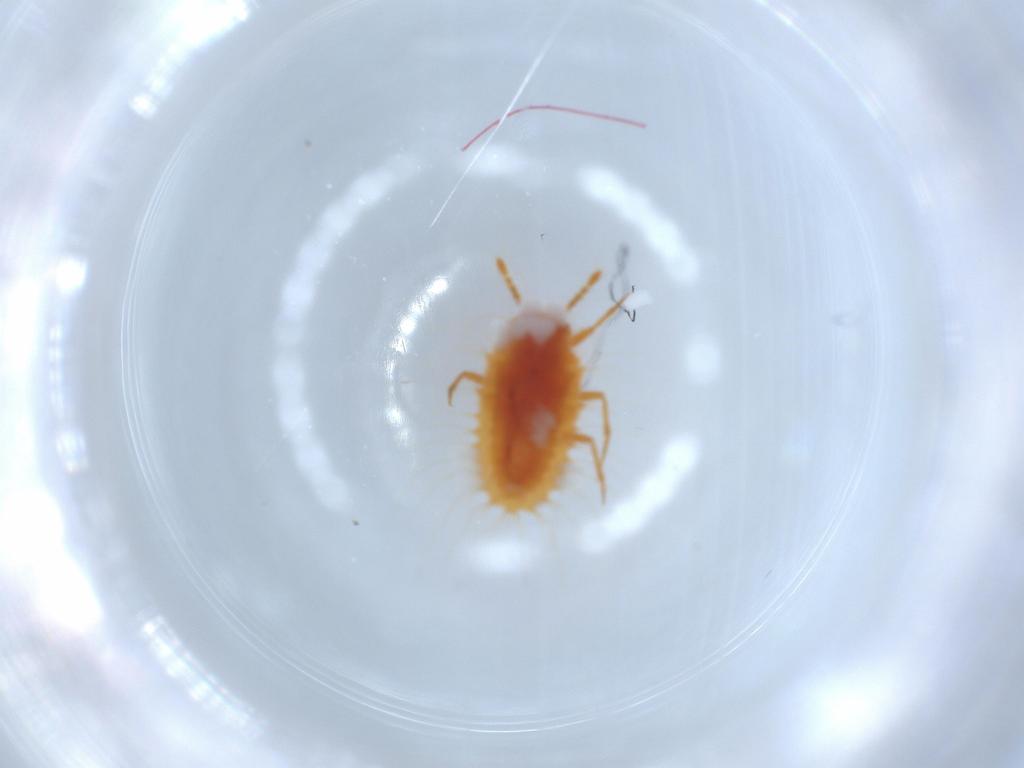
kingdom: Animalia
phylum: Arthropoda
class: Insecta
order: Hemiptera
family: Coccoidea_incertae_sedis
